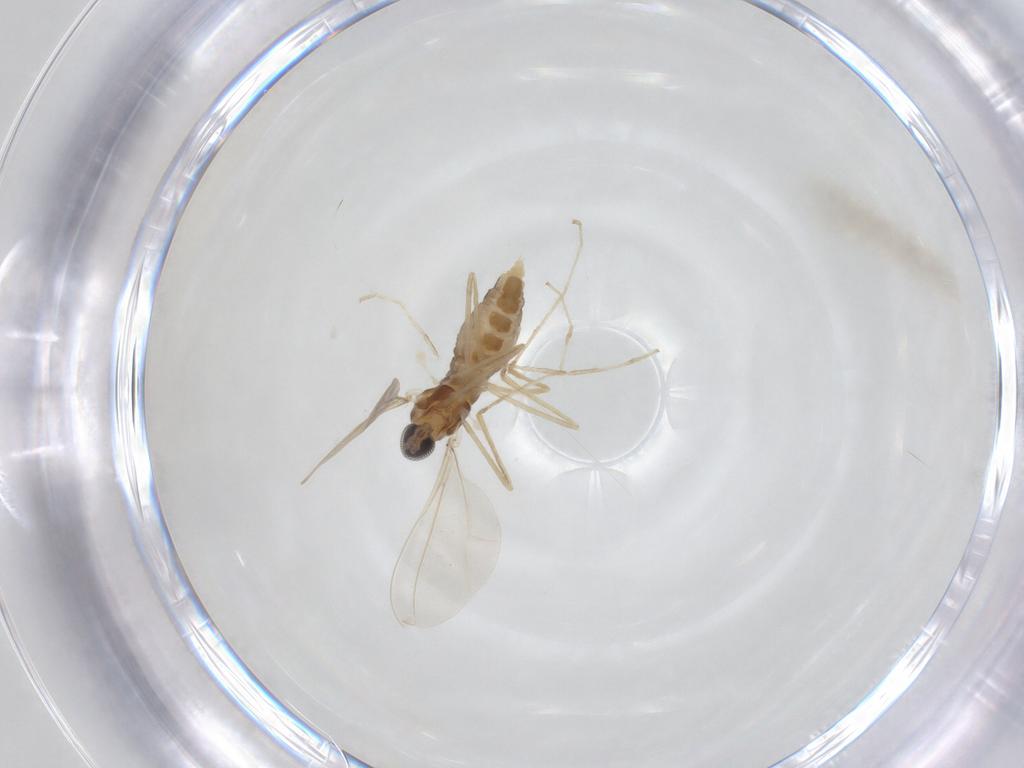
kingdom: Animalia
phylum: Arthropoda
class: Insecta
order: Diptera
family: Cecidomyiidae
